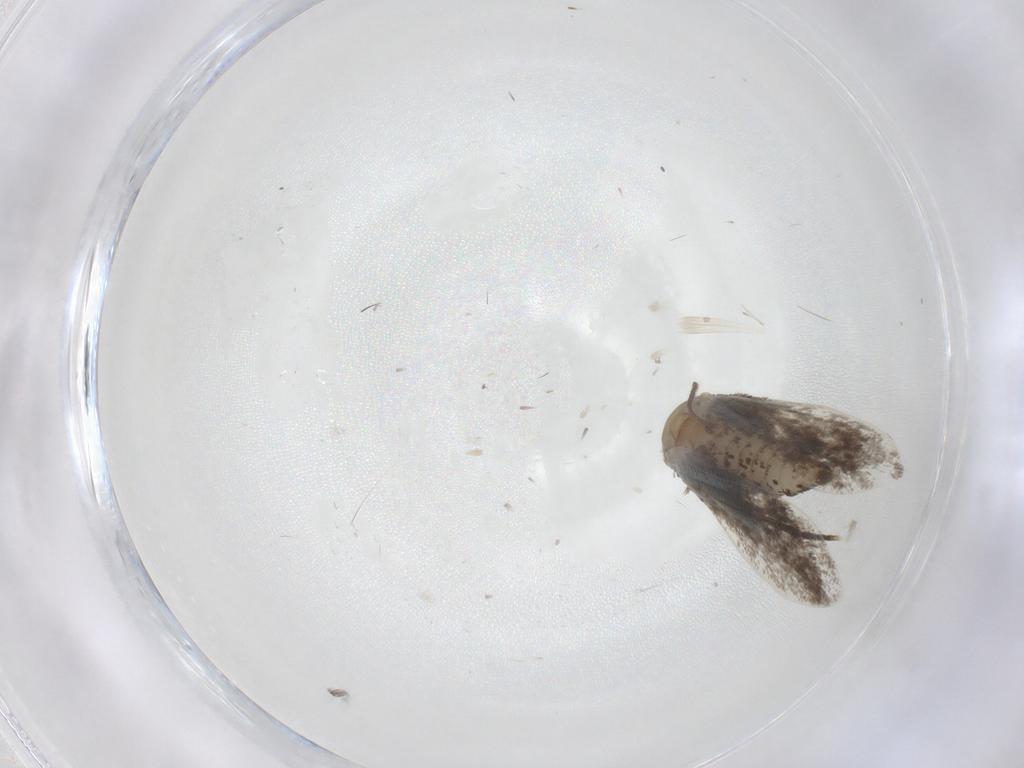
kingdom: Animalia
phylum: Arthropoda
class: Insecta
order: Lepidoptera
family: Psychidae
